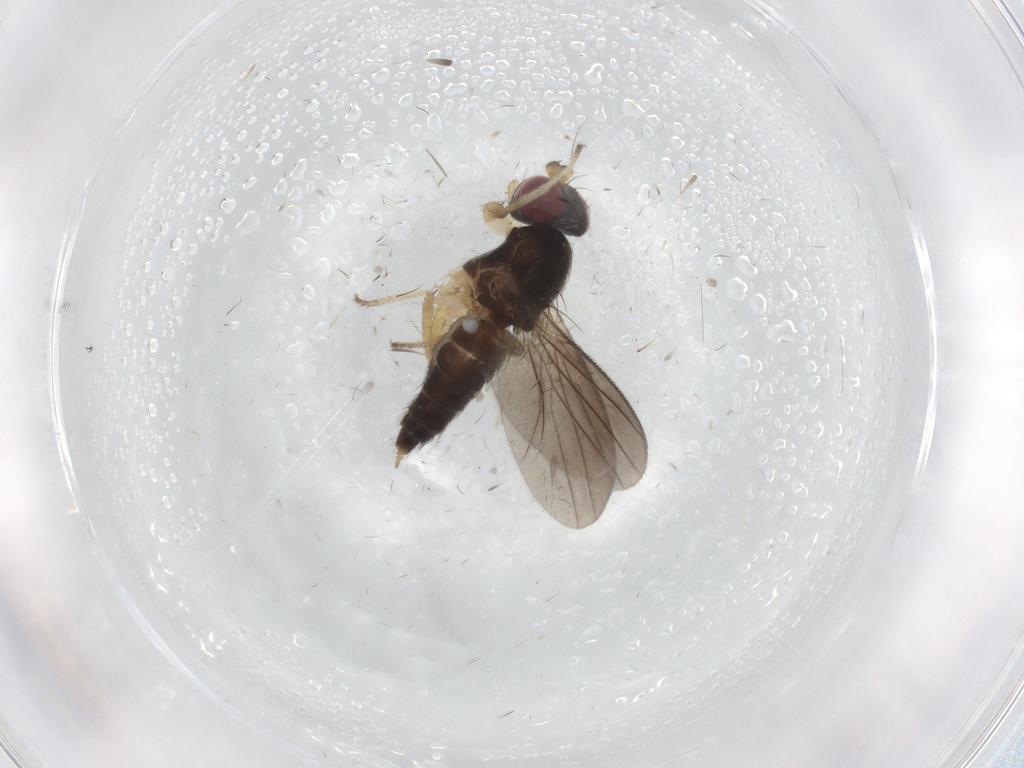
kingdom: Animalia
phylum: Arthropoda
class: Insecta
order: Diptera
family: Clusiidae
